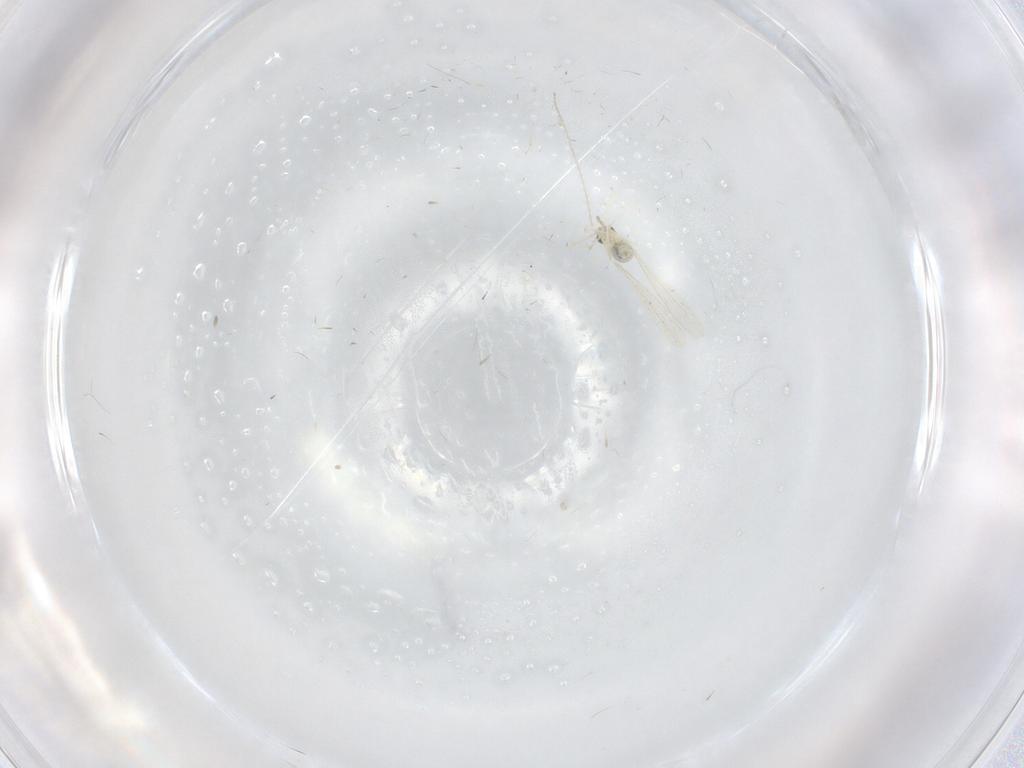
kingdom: Animalia
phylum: Arthropoda
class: Insecta
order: Diptera
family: Cecidomyiidae
